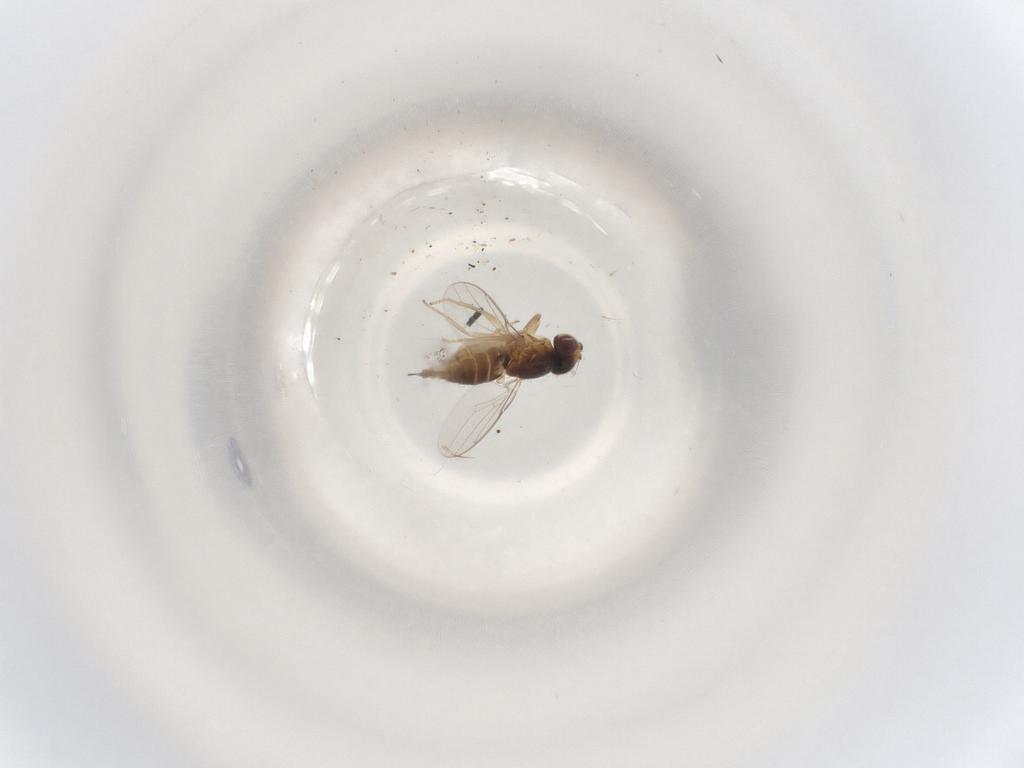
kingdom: Animalia
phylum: Arthropoda
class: Insecta
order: Diptera
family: Chloropidae
